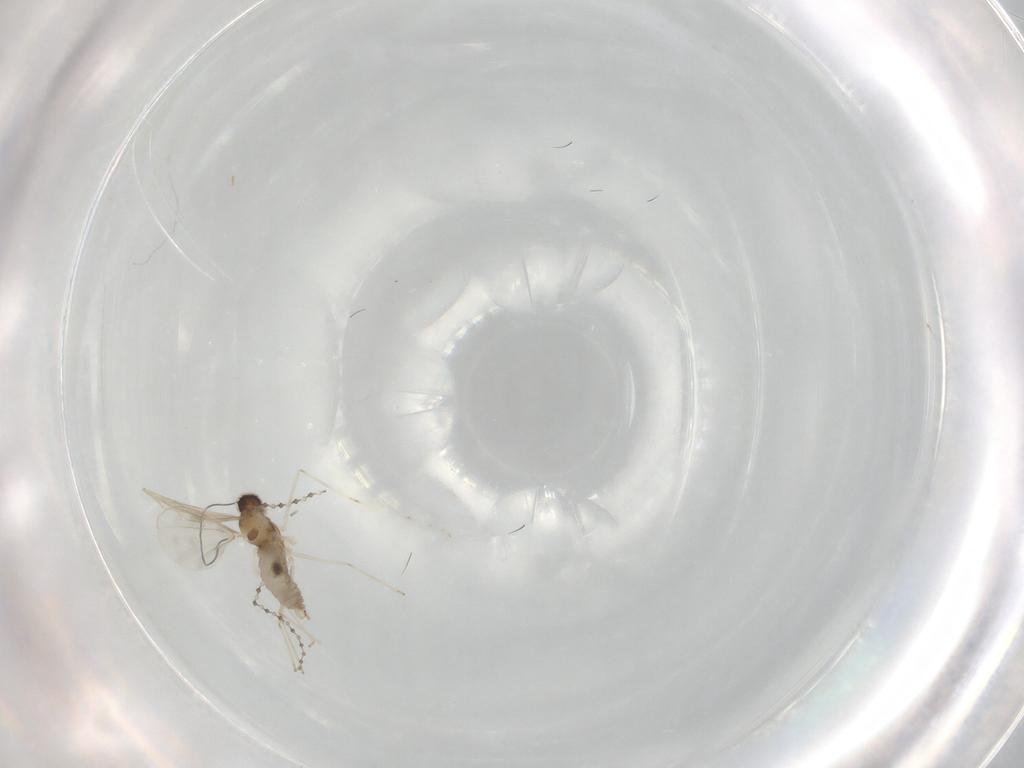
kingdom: Animalia
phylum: Arthropoda
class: Insecta
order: Diptera
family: Cecidomyiidae
